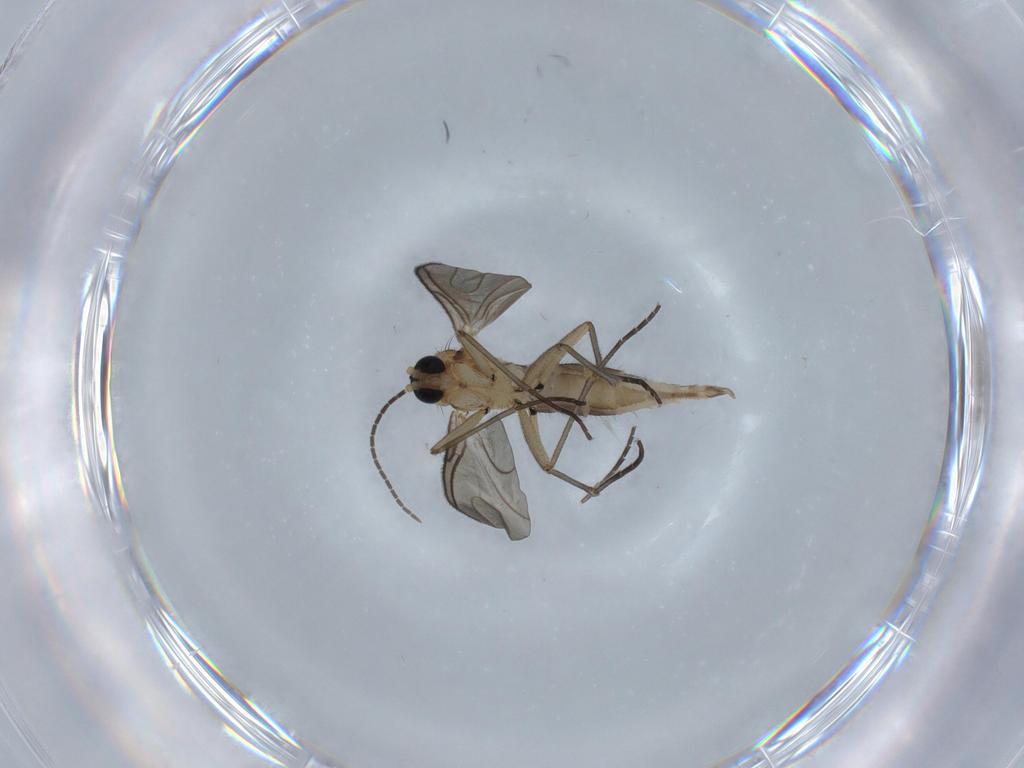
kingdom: Animalia
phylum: Arthropoda
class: Insecta
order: Diptera
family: Sciaridae
